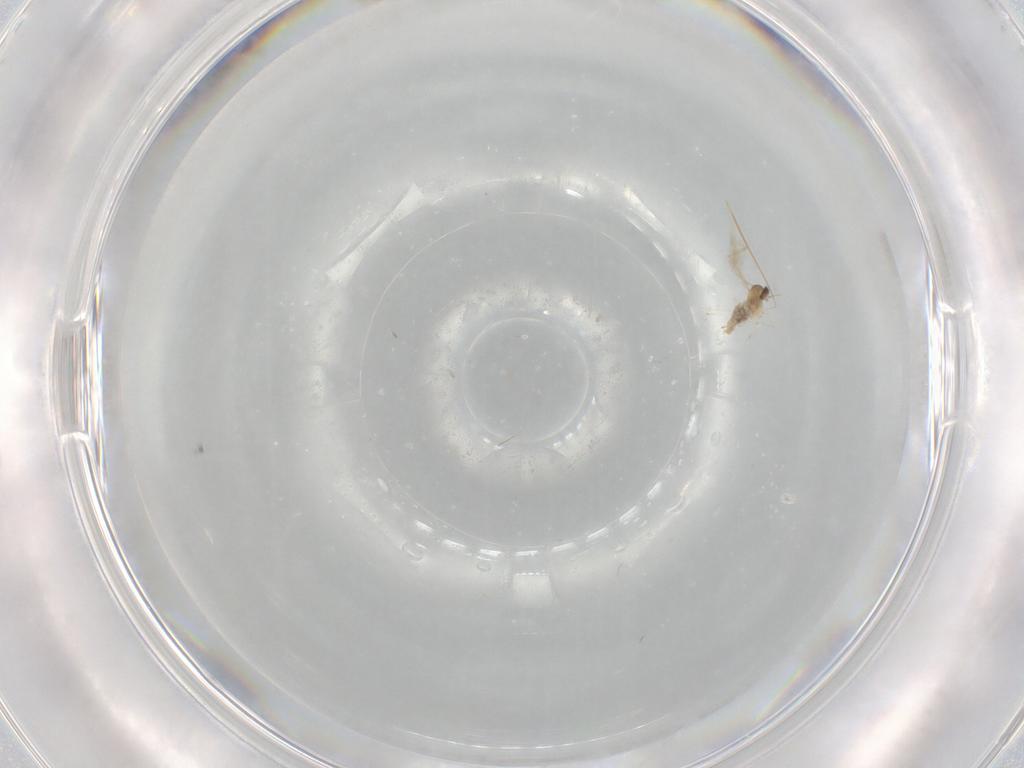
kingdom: Animalia
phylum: Arthropoda
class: Insecta
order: Diptera
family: Cecidomyiidae
